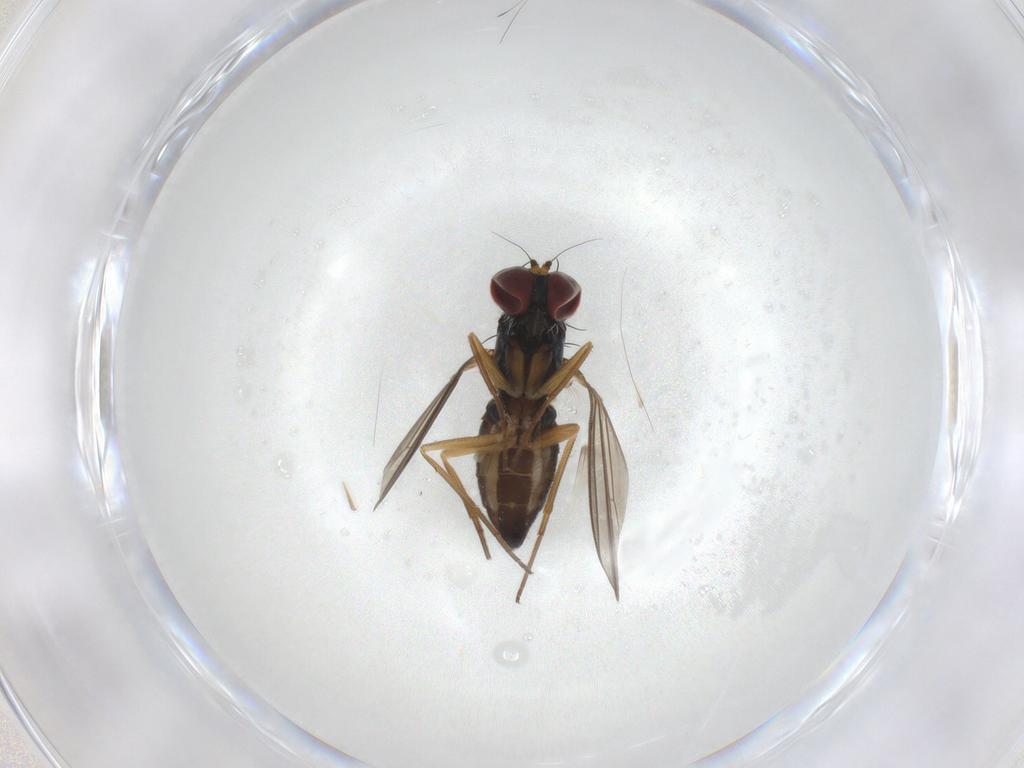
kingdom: Animalia
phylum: Arthropoda
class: Insecta
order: Diptera
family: Dolichopodidae
